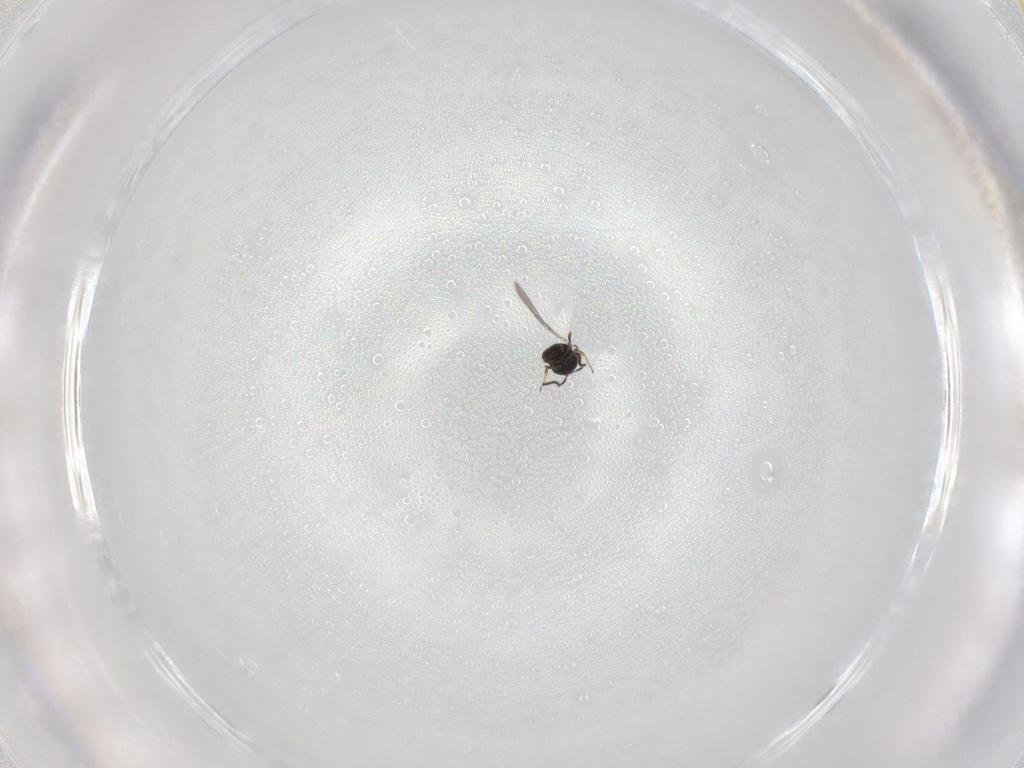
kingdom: Animalia
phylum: Arthropoda
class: Insecta
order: Hymenoptera
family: Scelionidae
